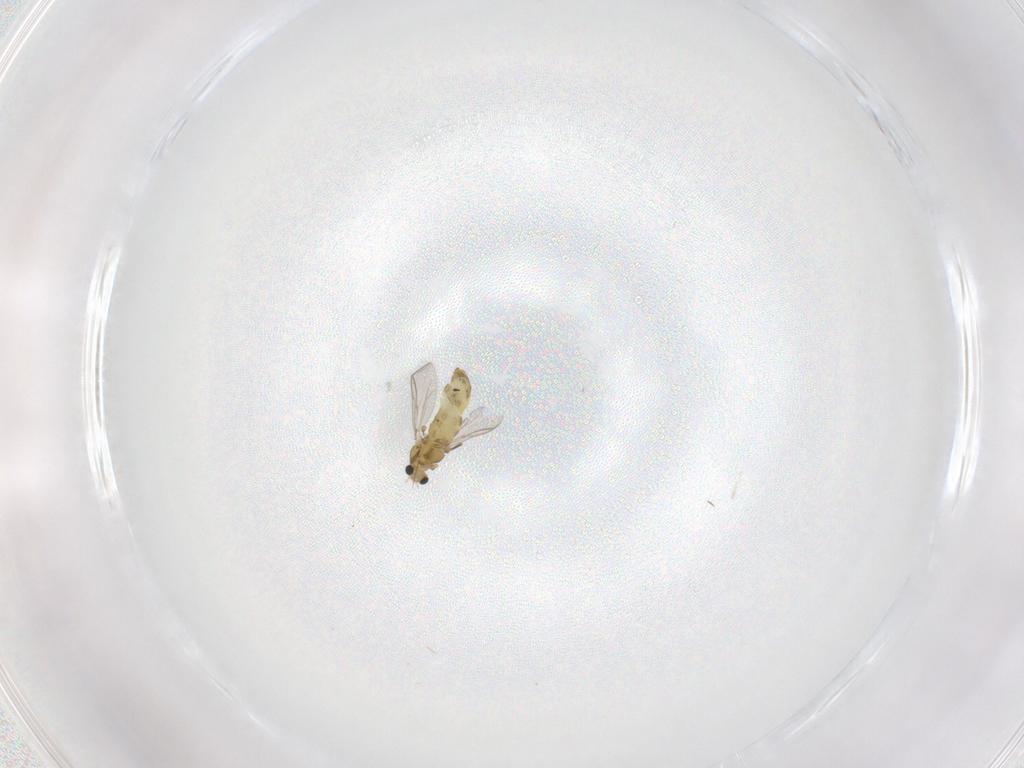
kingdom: Animalia
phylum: Arthropoda
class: Insecta
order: Diptera
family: Chironomidae
